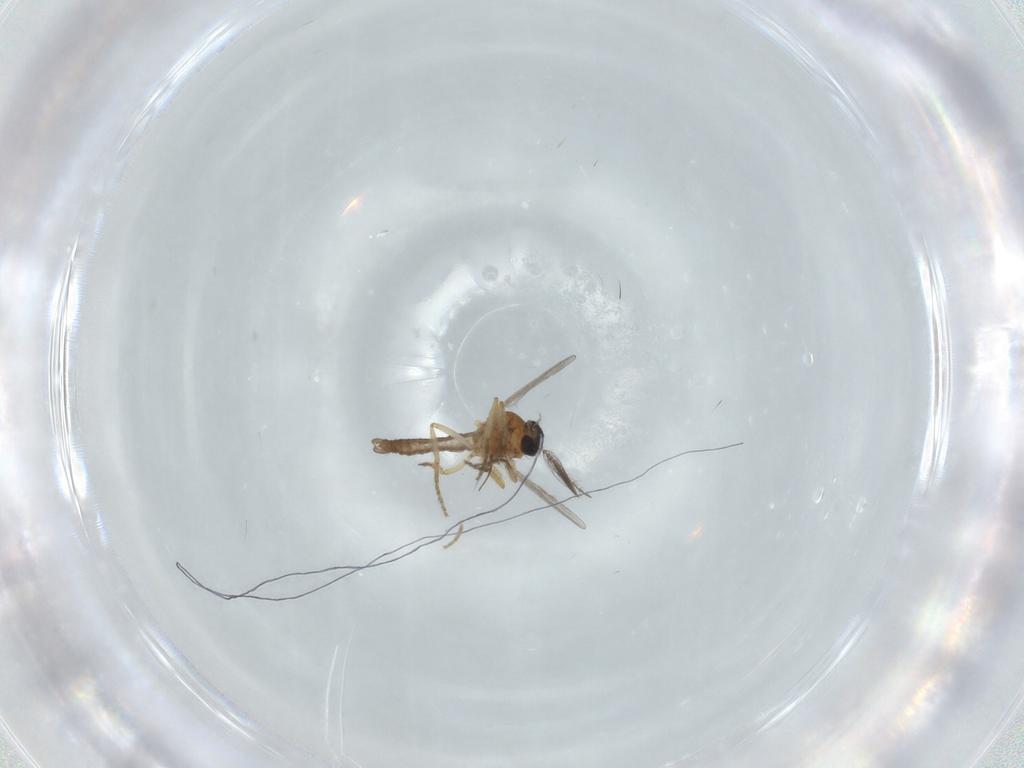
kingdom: Animalia
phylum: Arthropoda
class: Insecta
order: Diptera
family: Chironomidae
